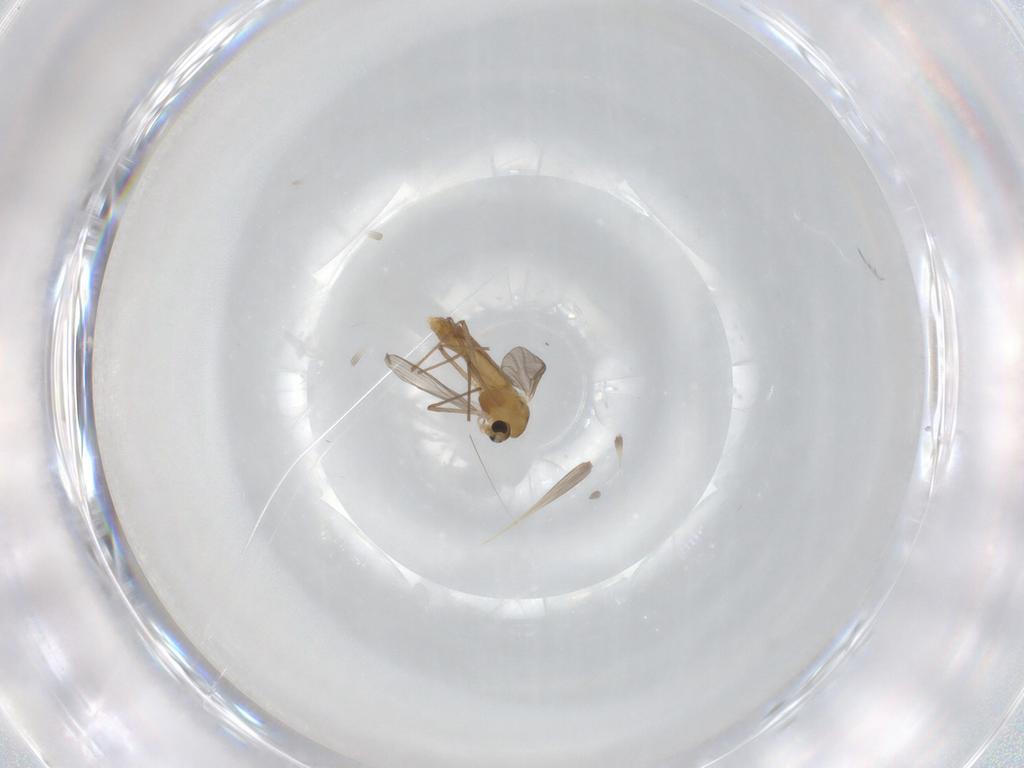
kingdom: Animalia
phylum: Arthropoda
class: Insecta
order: Diptera
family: Chironomidae
